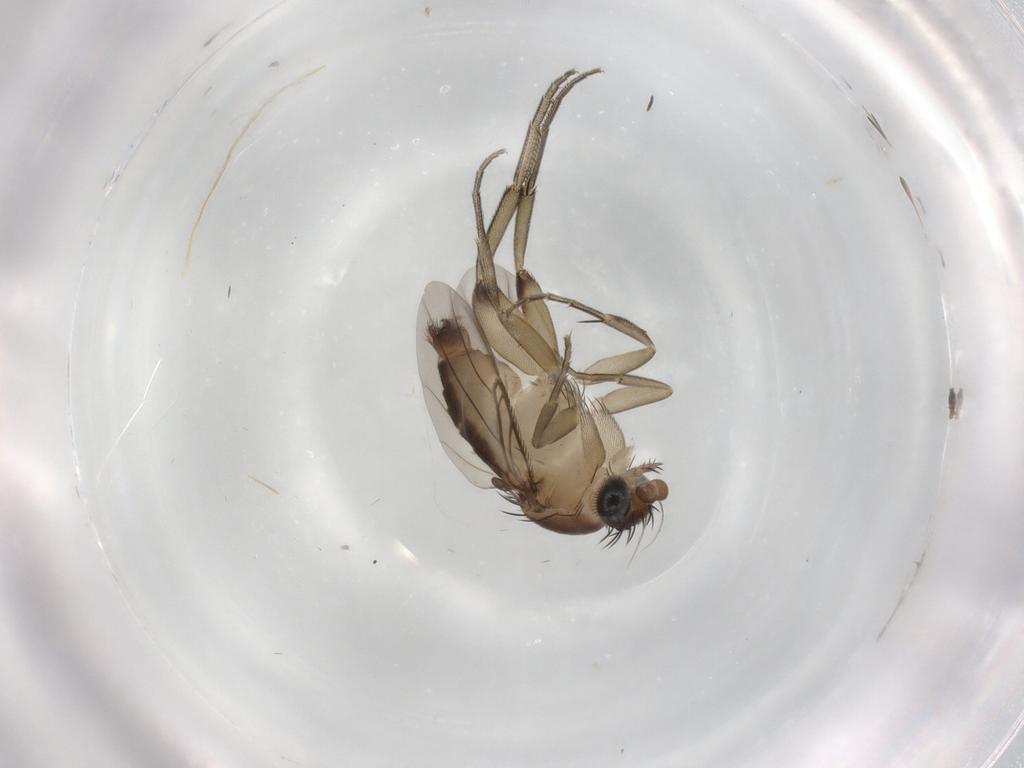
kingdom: Animalia
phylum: Arthropoda
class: Insecta
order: Diptera
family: Phoridae
